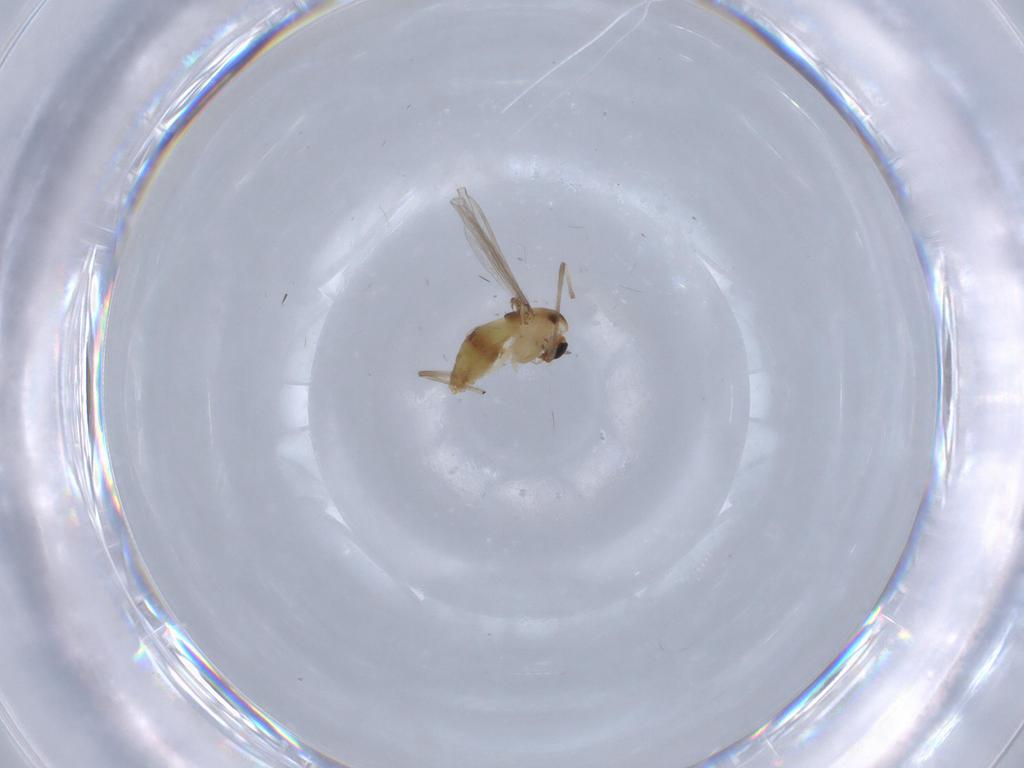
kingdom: Animalia
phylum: Arthropoda
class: Insecta
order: Diptera
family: Chironomidae
